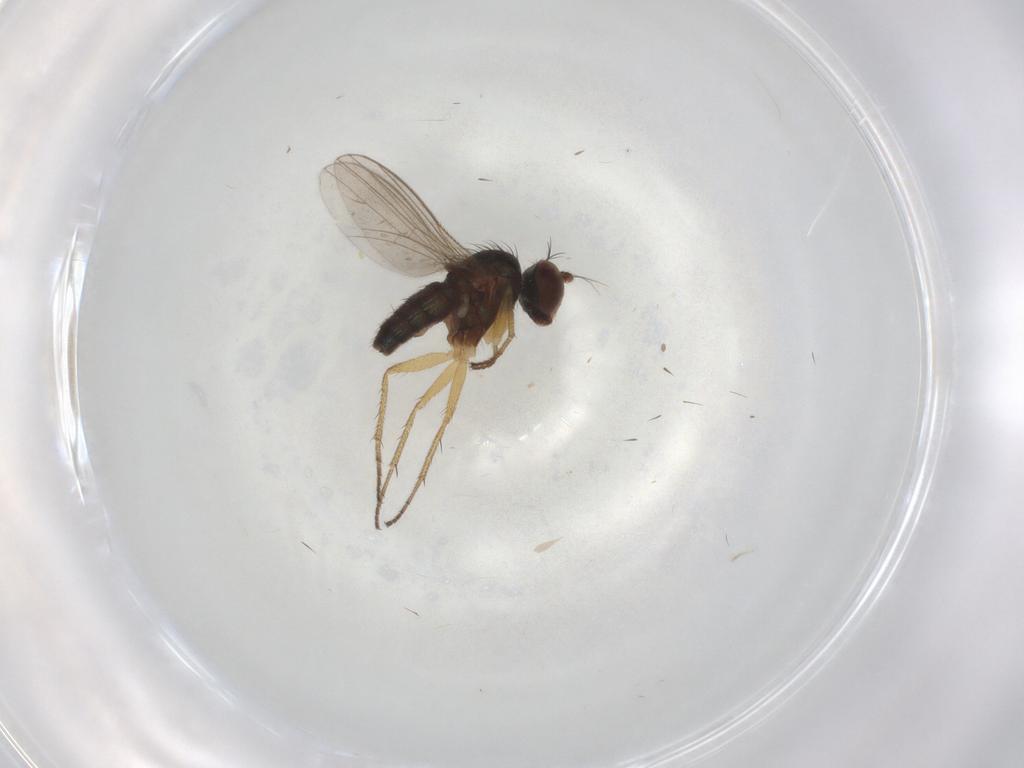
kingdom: Animalia
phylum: Arthropoda
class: Insecta
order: Diptera
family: Cecidomyiidae
